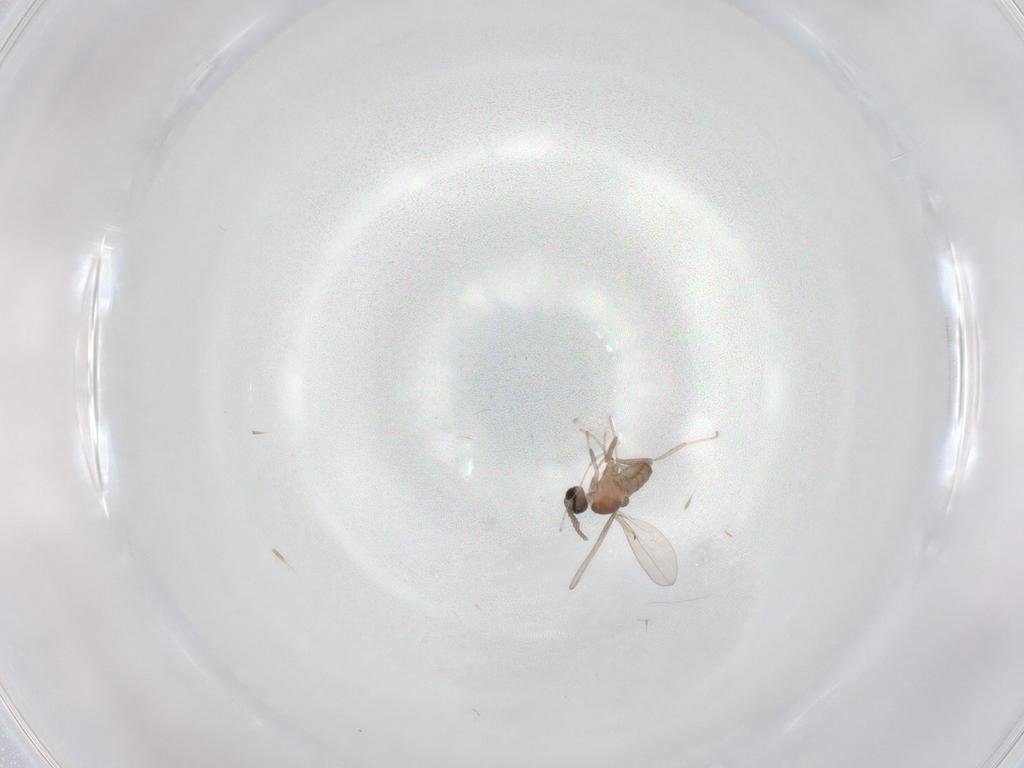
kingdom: Animalia
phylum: Arthropoda
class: Insecta
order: Diptera
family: Cecidomyiidae
